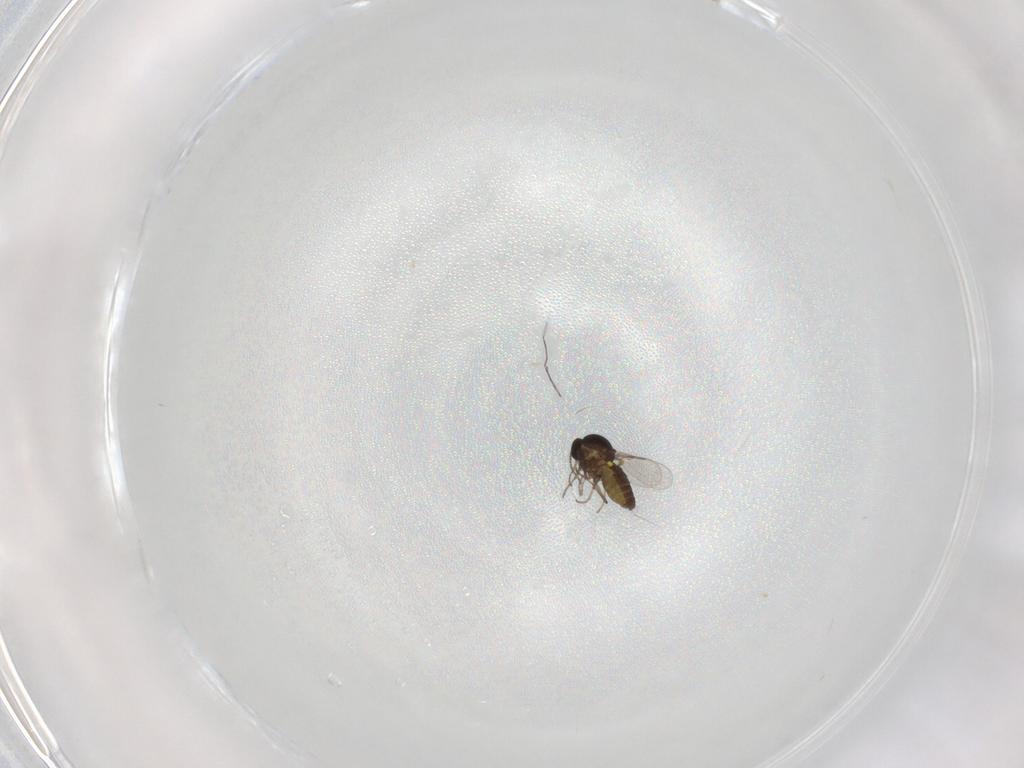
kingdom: Animalia
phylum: Arthropoda
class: Insecta
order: Diptera
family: Ceratopogonidae
